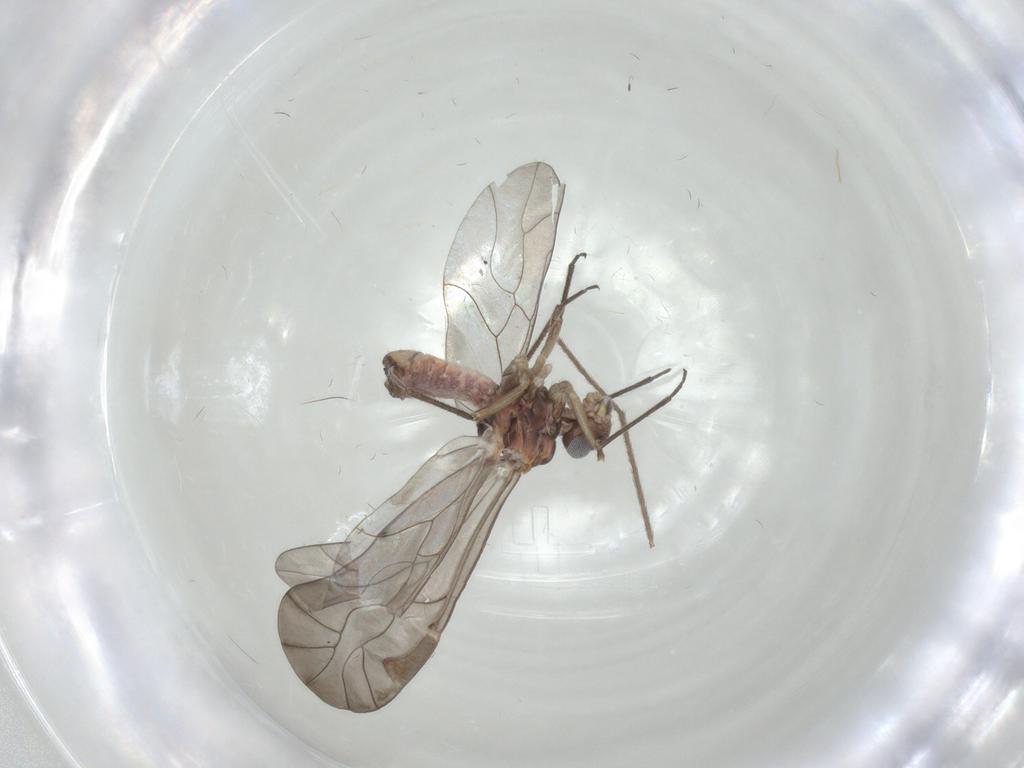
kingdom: Animalia
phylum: Arthropoda
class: Insecta
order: Psocodea
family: Peripsocidae
